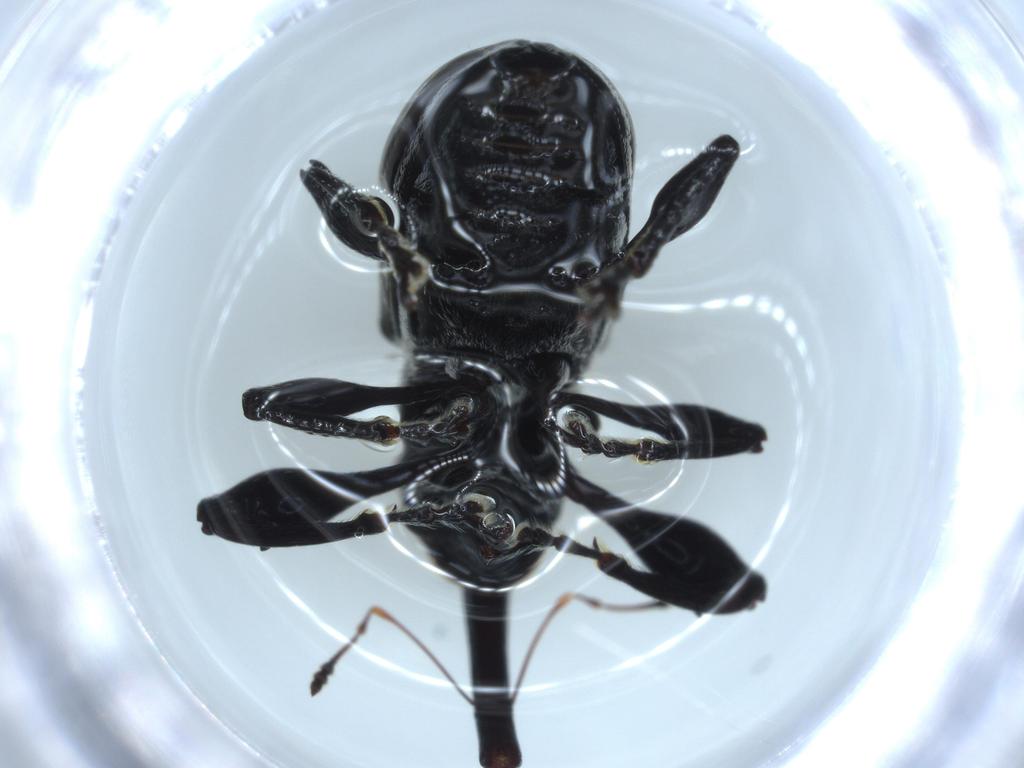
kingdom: Animalia
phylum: Arthropoda
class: Insecta
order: Coleoptera
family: Curculionidae
